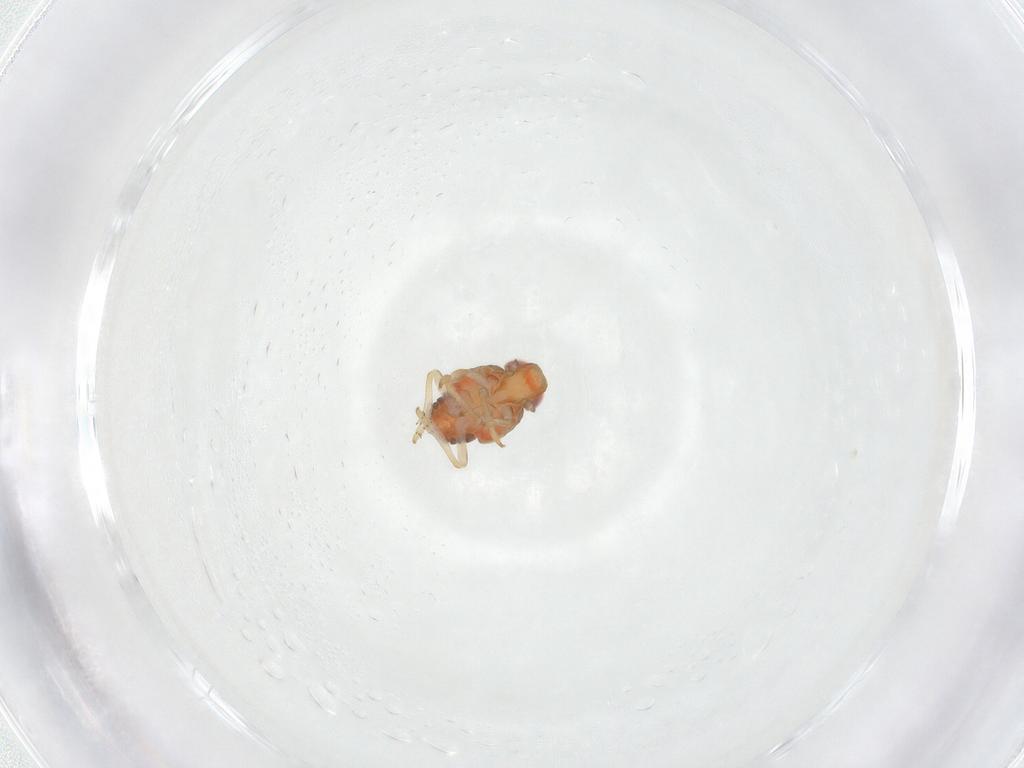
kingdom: Animalia
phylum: Arthropoda
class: Insecta
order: Hemiptera
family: Issidae
